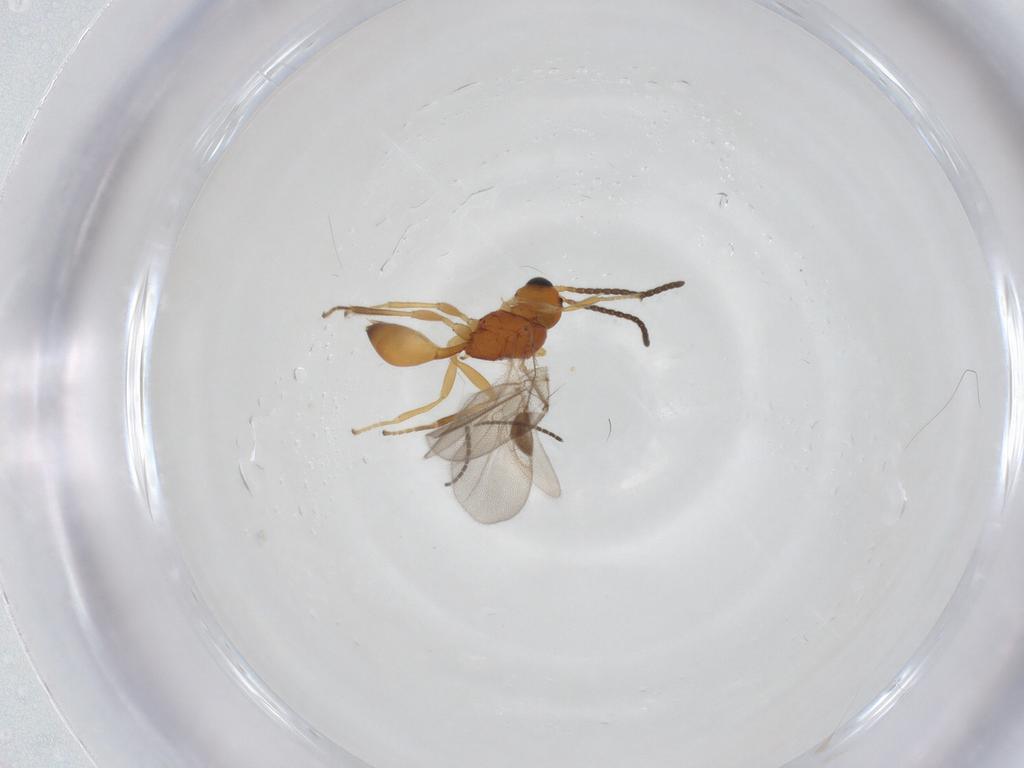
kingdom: Animalia
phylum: Arthropoda
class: Insecta
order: Hymenoptera
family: Braconidae
